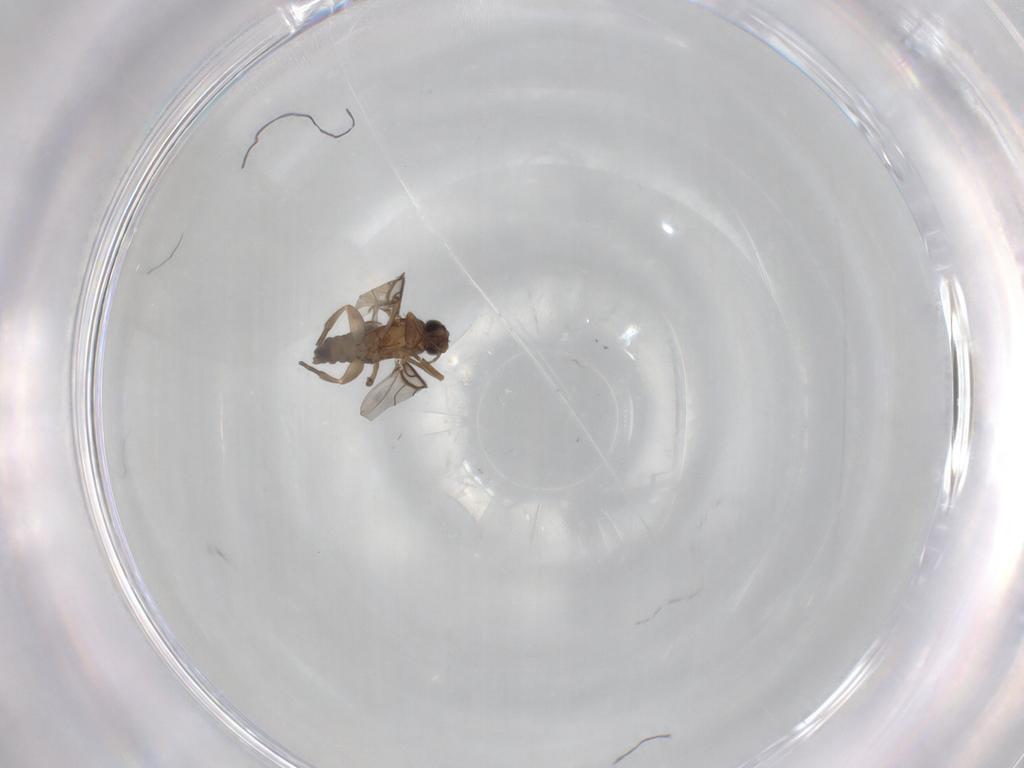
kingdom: Animalia
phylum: Arthropoda
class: Insecta
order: Diptera
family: Phoridae
